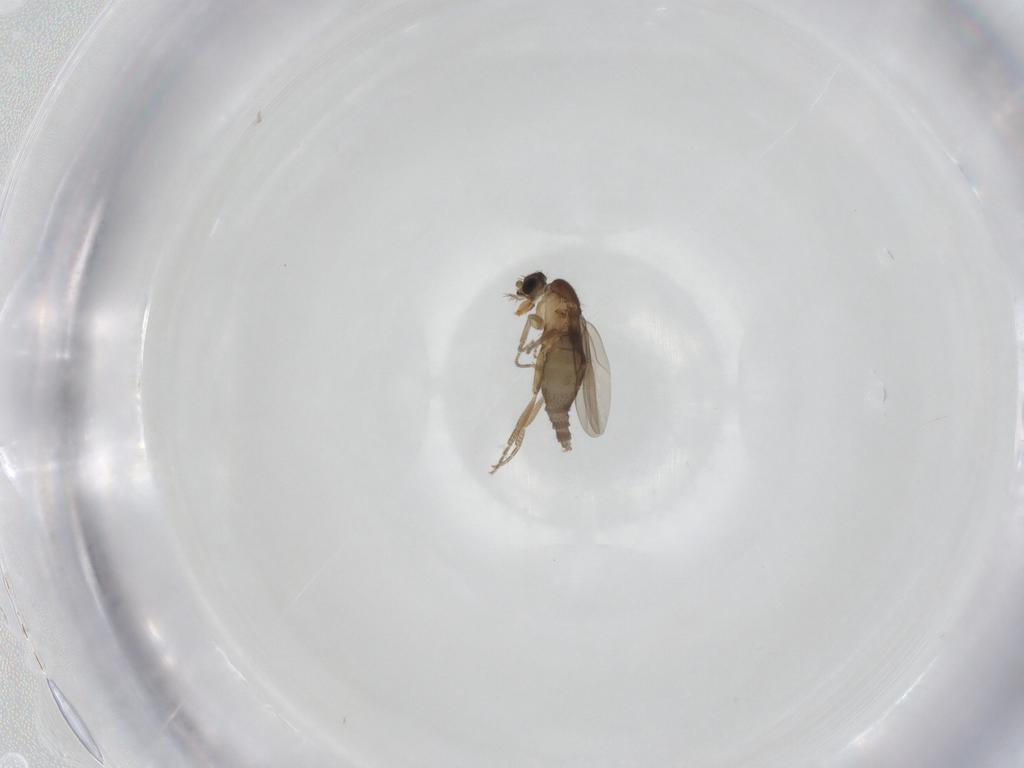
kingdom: Animalia
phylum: Arthropoda
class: Insecta
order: Diptera
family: Phoridae
